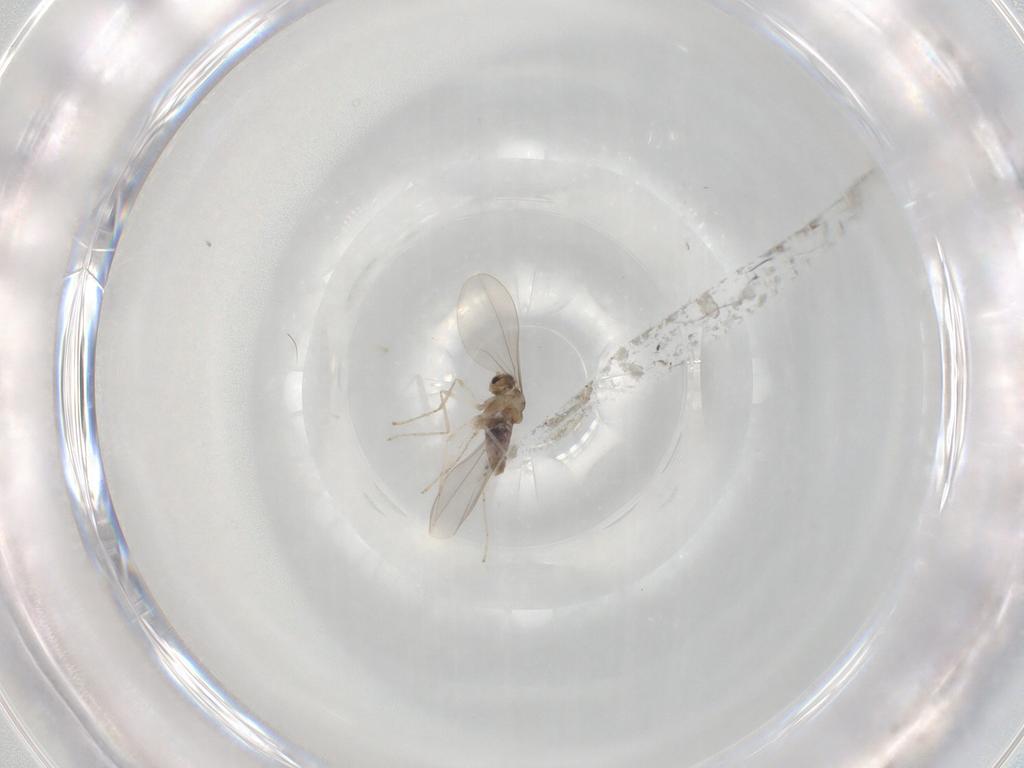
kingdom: Animalia
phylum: Arthropoda
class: Insecta
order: Diptera
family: Cecidomyiidae
